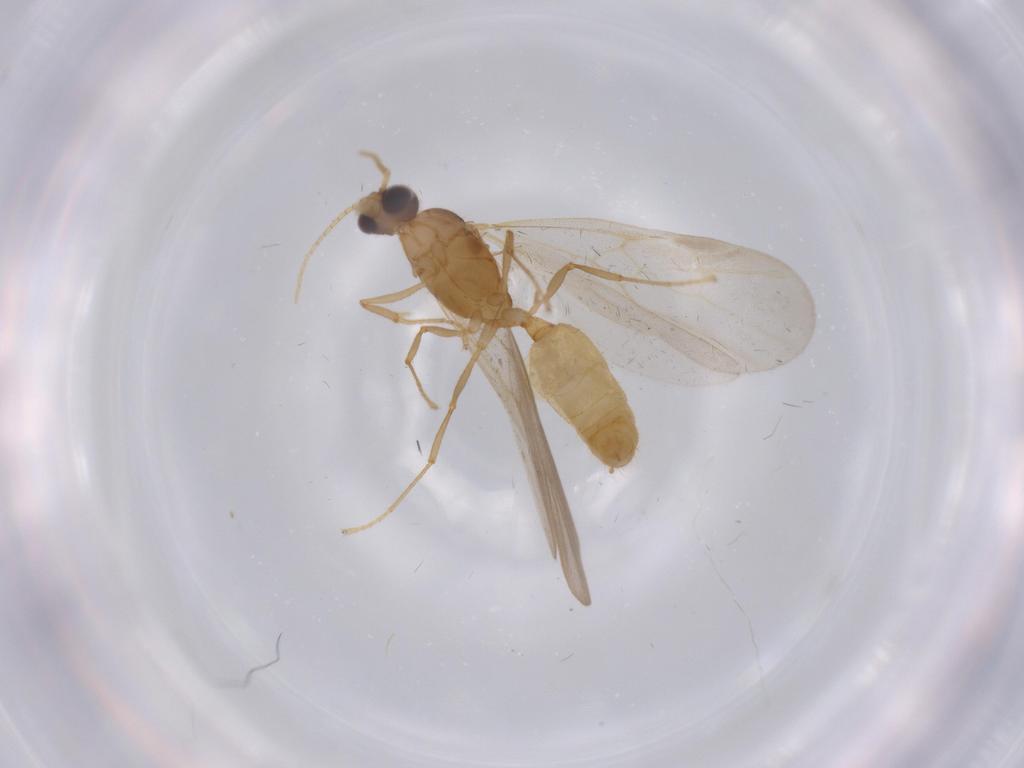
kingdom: Animalia
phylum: Arthropoda
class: Insecta
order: Hymenoptera
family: Formicidae
